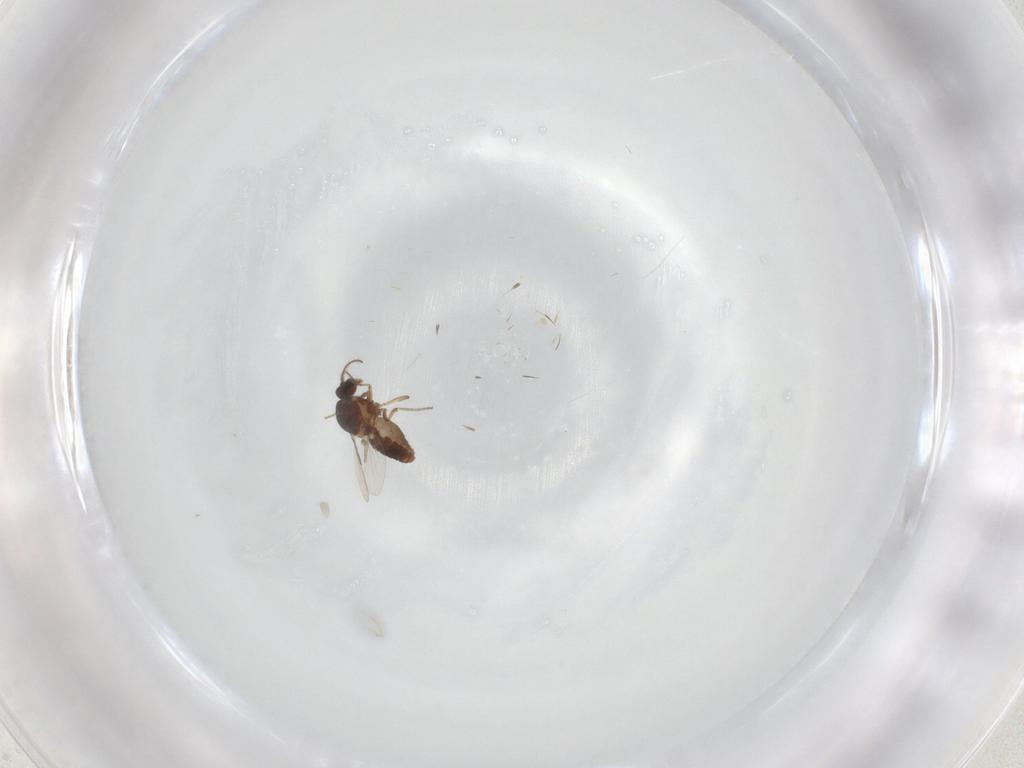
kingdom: Animalia
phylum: Arthropoda
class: Insecta
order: Diptera
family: Ceratopogonidae
